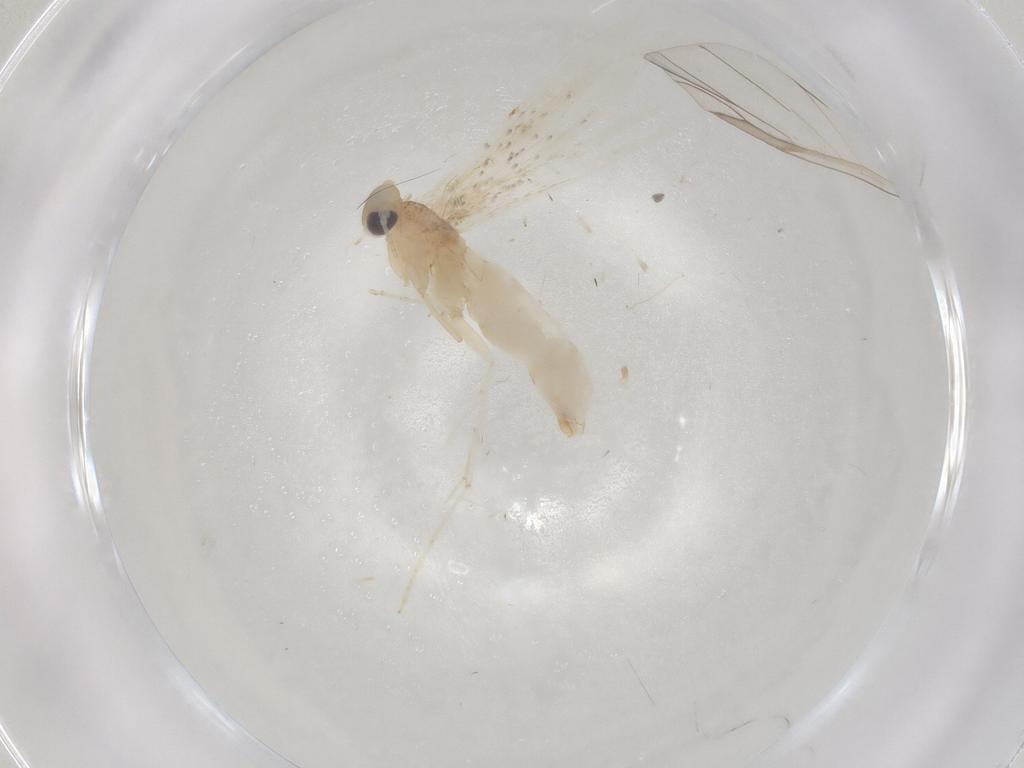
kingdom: Animalia
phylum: Arthropoda
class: Insecta
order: Lepidoptera
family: Gracillariidae
